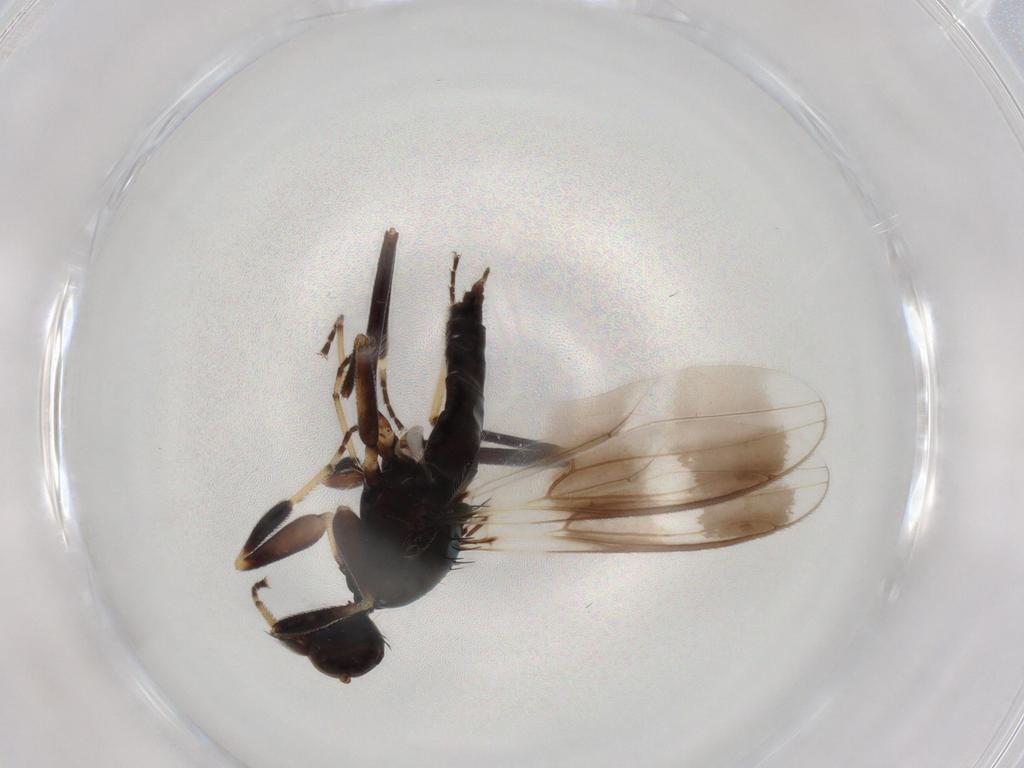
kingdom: Animalia
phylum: Arthropoda
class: Insecta
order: Diptera
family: Hybotidae
